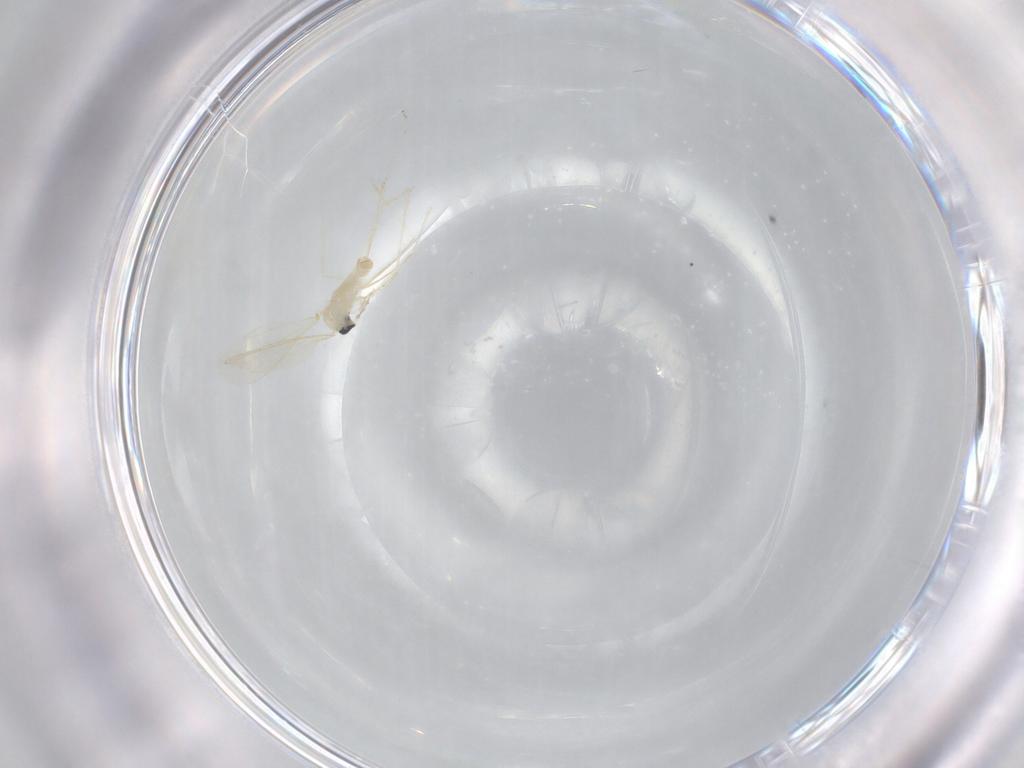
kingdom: Animalia
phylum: Arthropoda
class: Insecta
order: Diptera
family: Cecidomyiidae
